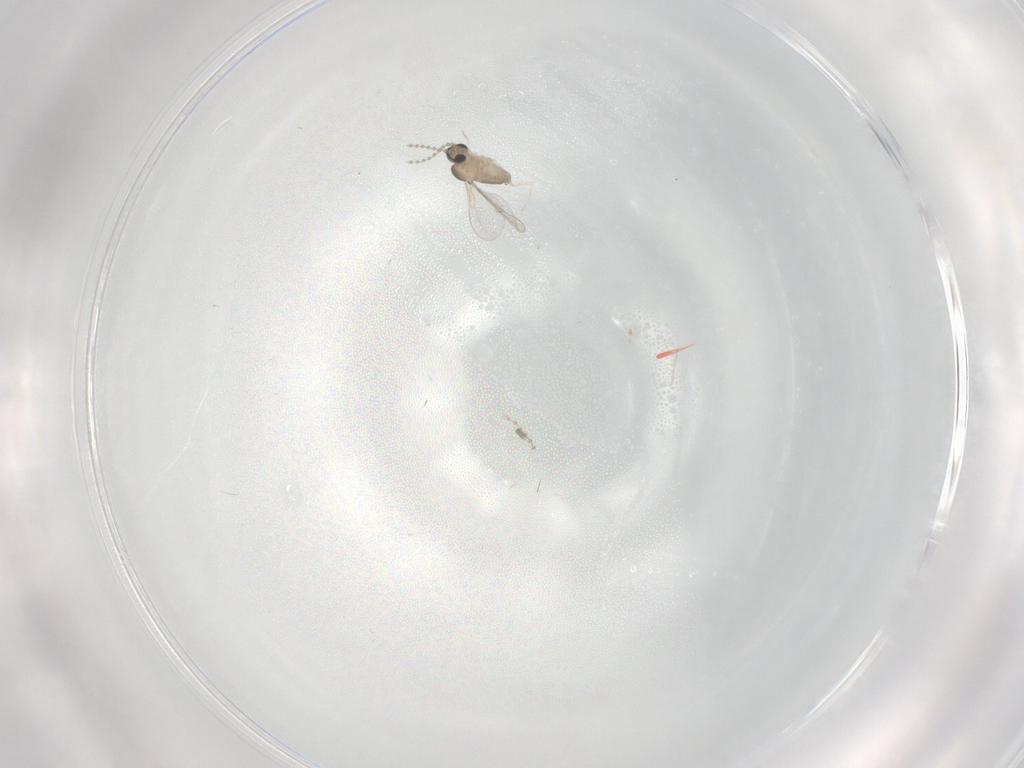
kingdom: Animalia
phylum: Arthropoda
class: Insecta
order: Diptera
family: Cecidomyiidae
